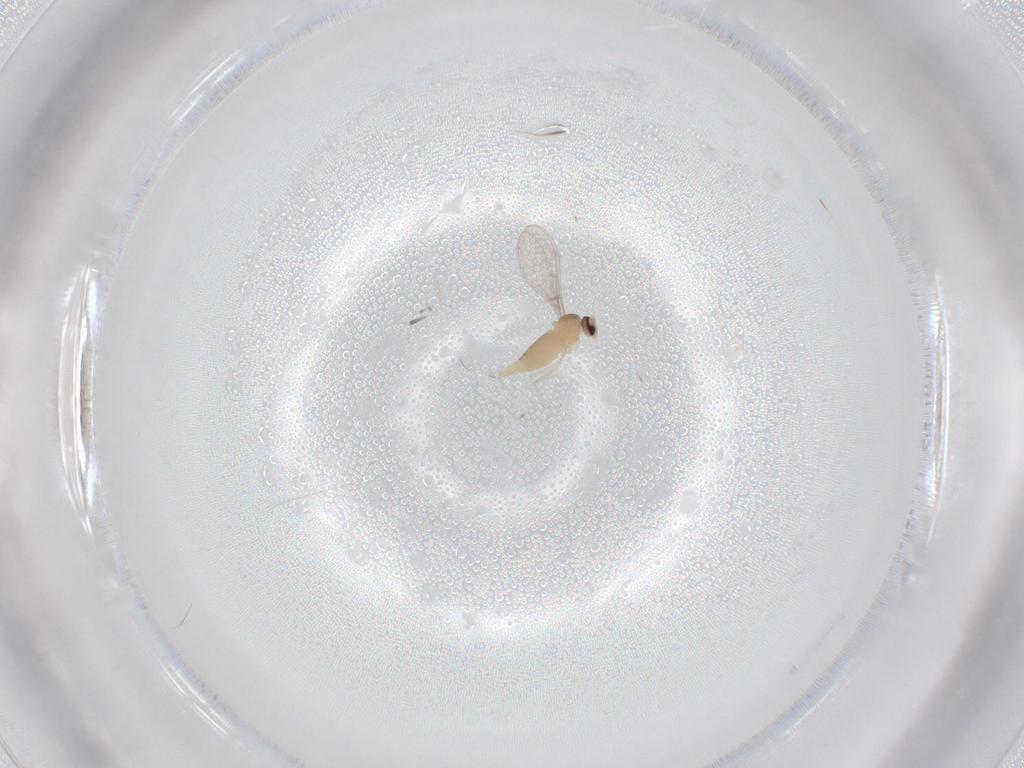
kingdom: Animalia
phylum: Arthropoda
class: Insecta
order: Diptera
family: Cecidomyiidae
